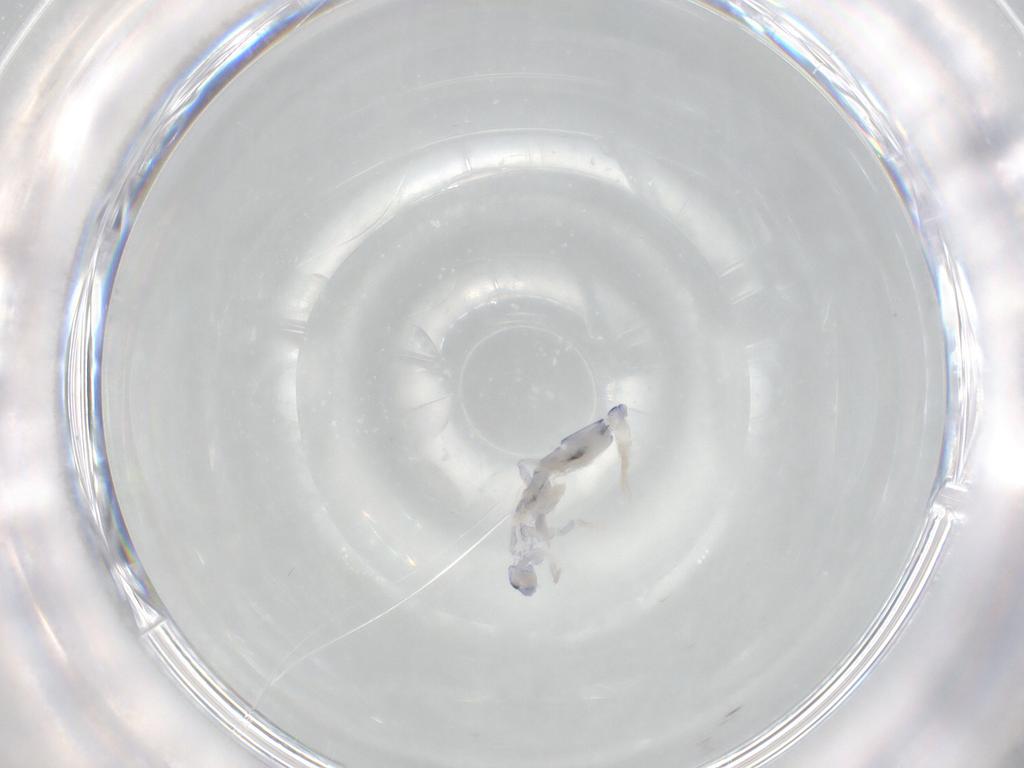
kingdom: Animalia
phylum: Arthropoda
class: Collembola
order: Entomobryomorpha
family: Entomobryidae
